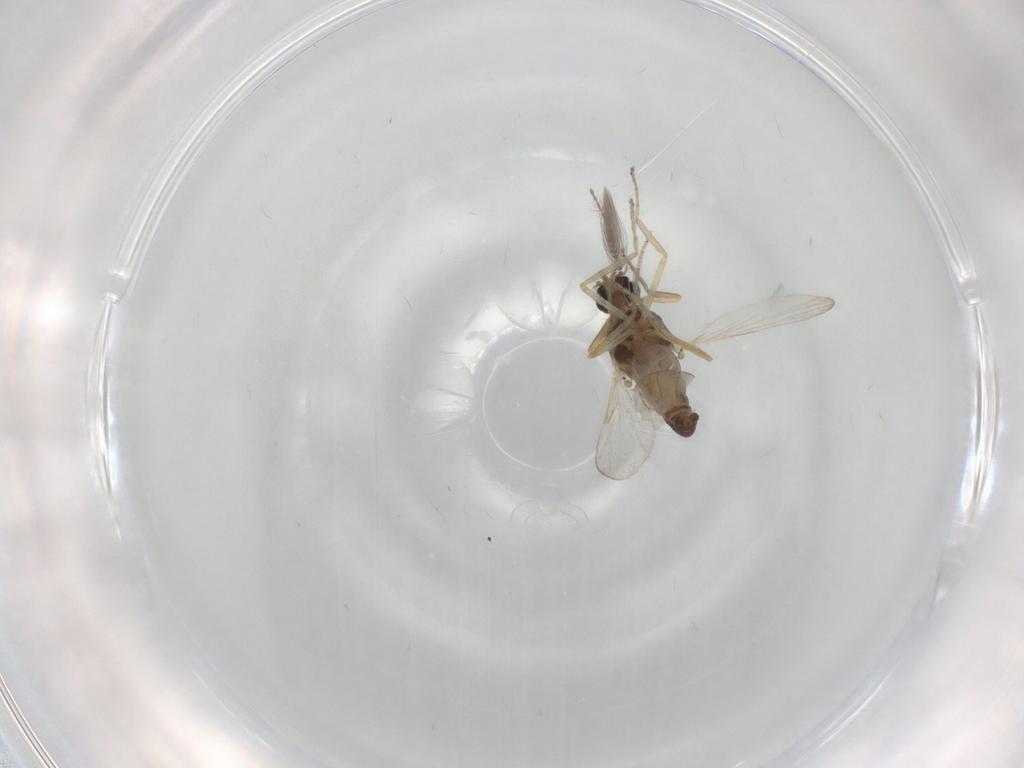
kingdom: Animalia
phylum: Arthropoda
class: Insecta
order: Diptera
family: Ceratopogonidae
